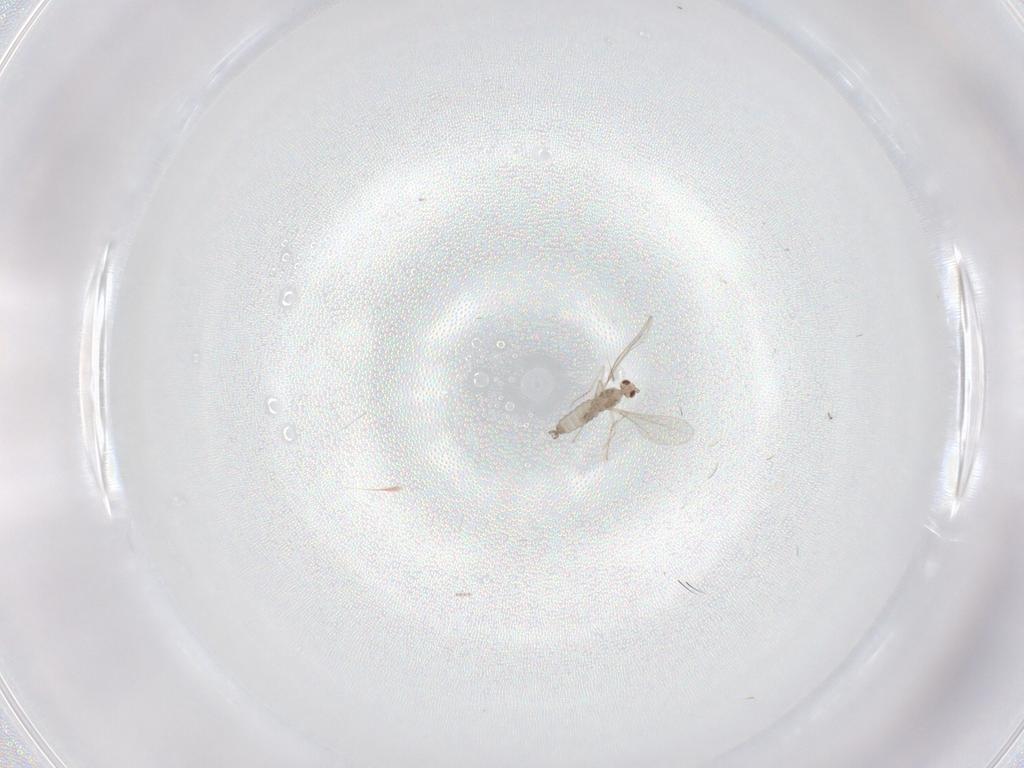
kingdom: Animalia
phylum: Arthropoda
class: Insecta
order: Diptera
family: Cecidomyiidae
